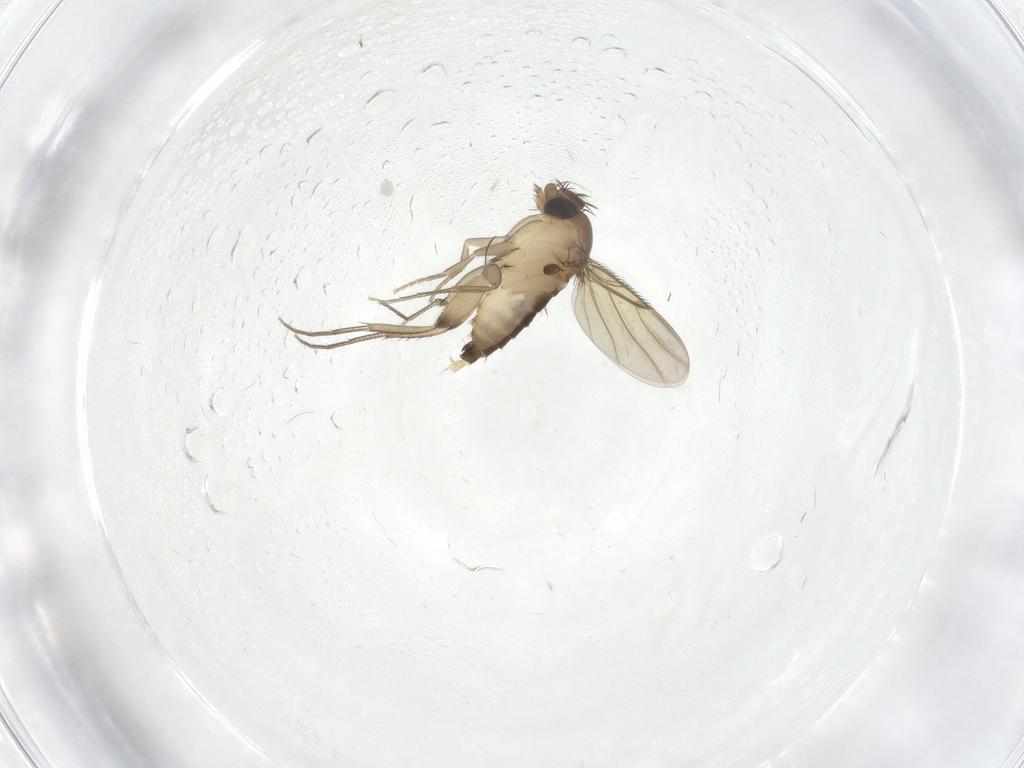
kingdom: Animalia
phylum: Arthropoda
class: Insecta
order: Diptera
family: Phoridae
